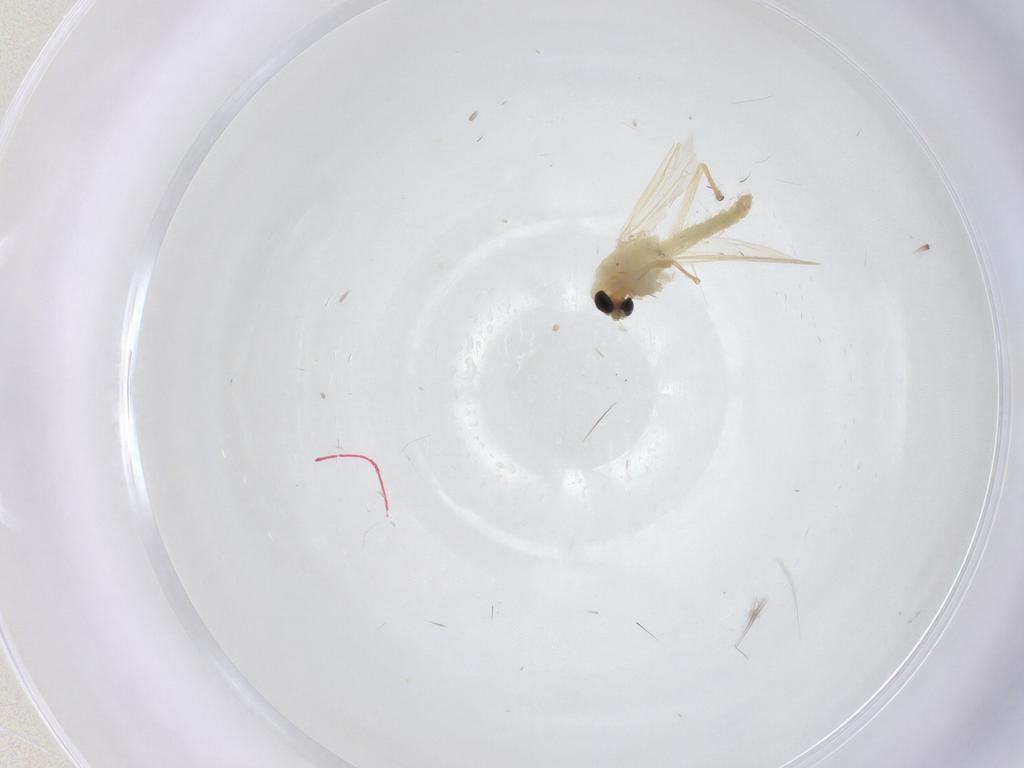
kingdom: Animalia
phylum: Arthropoda
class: Insecta
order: Diptera
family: Chironomidae
